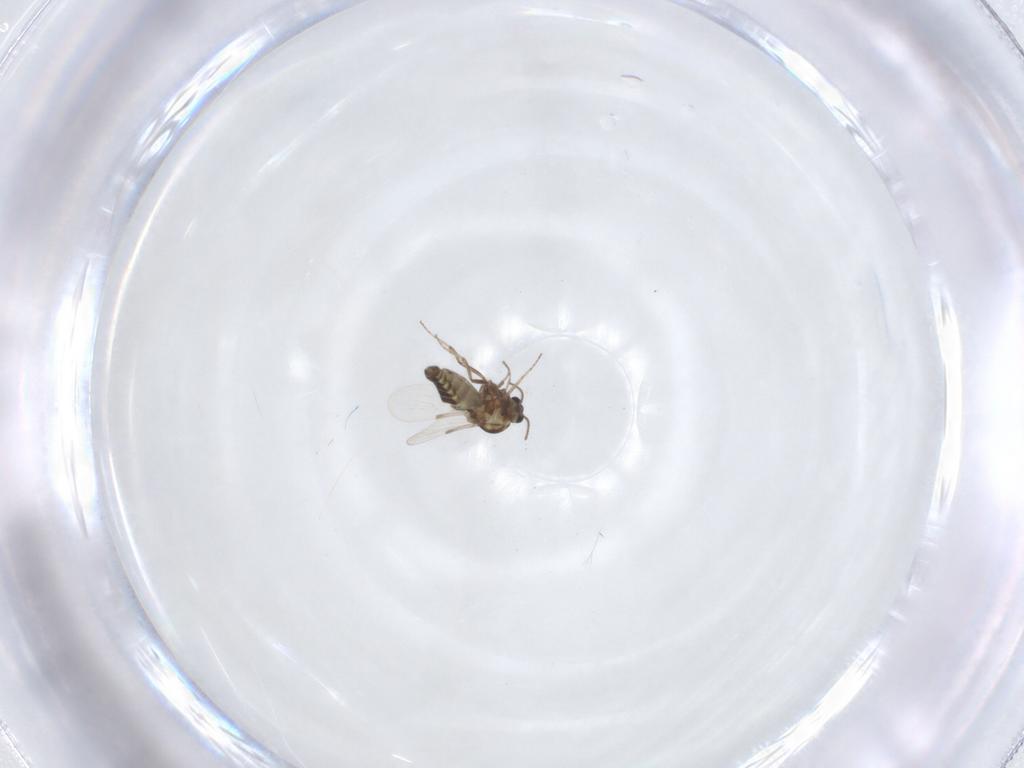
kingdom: Animalia
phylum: Arthropoda
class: Insecta
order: Diptera
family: Ceratopogonidae
